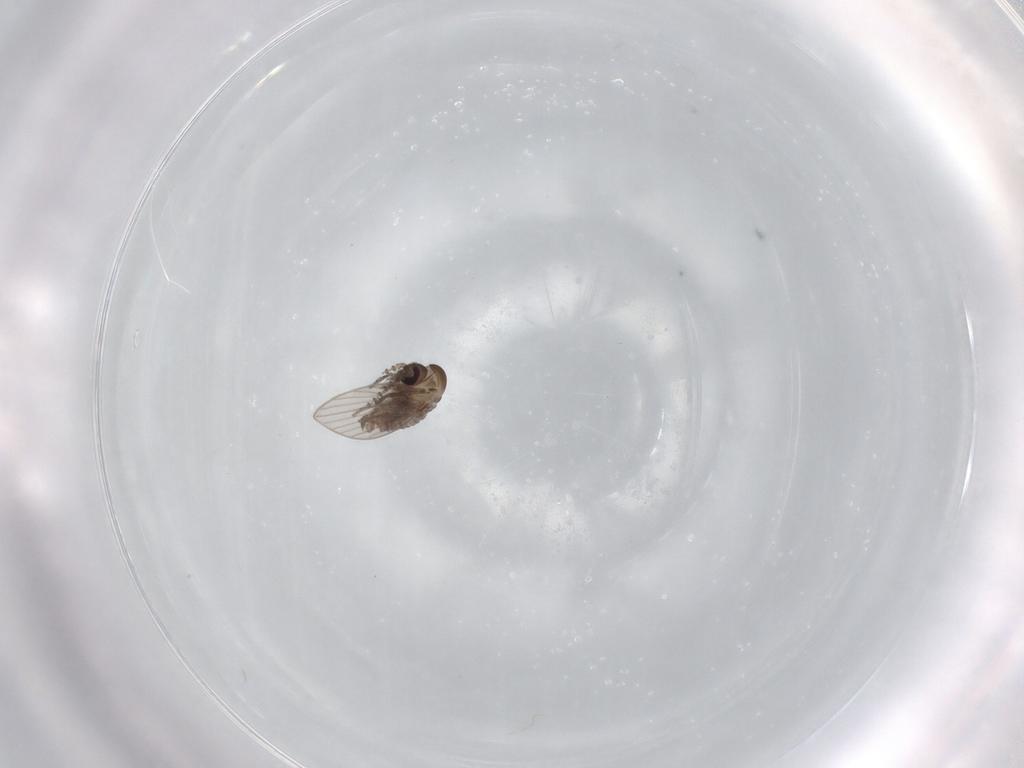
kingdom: Animalia
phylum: Arthropoda
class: Insecta
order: Diptera
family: Psychodidae
